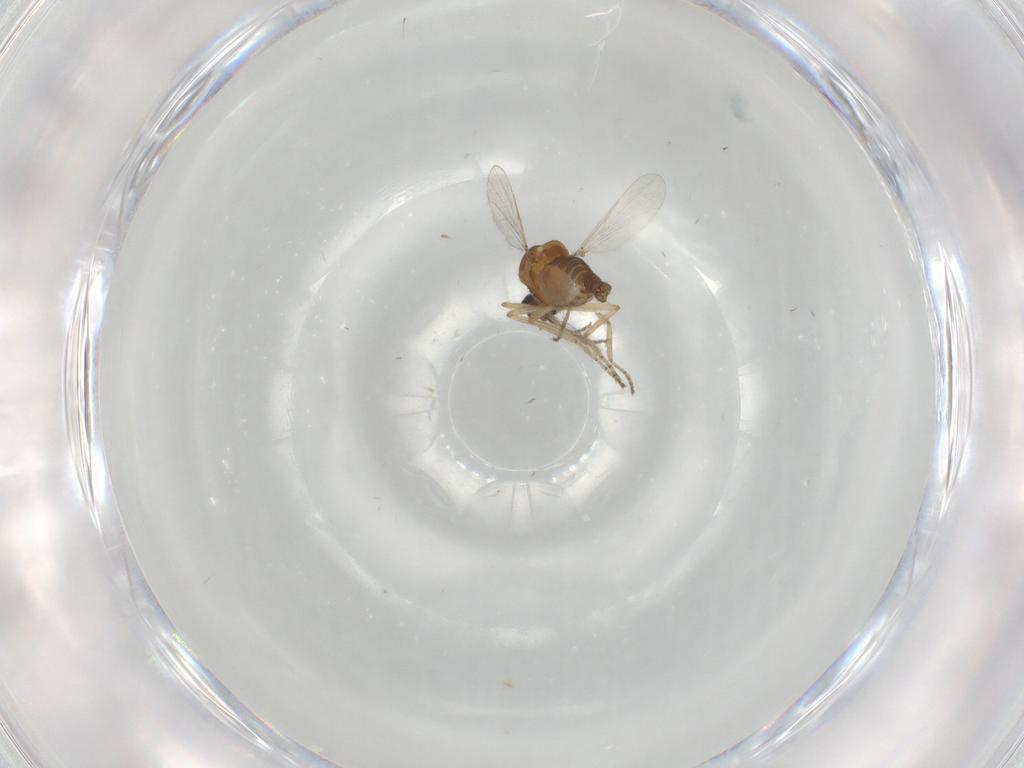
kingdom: Animalia
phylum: Arthropoda
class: Insecta
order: Diptera
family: Ceratopogonidae
